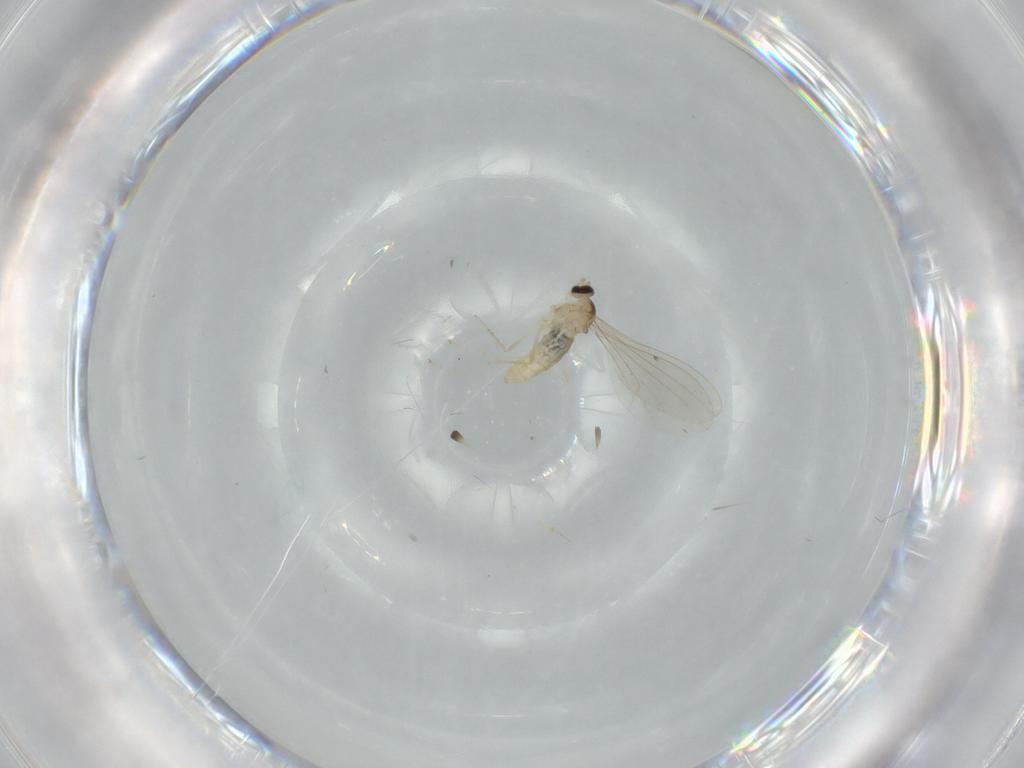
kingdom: Animalia
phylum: Arthropoda
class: Insecta
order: Diptera
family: Cecidomyiidae
